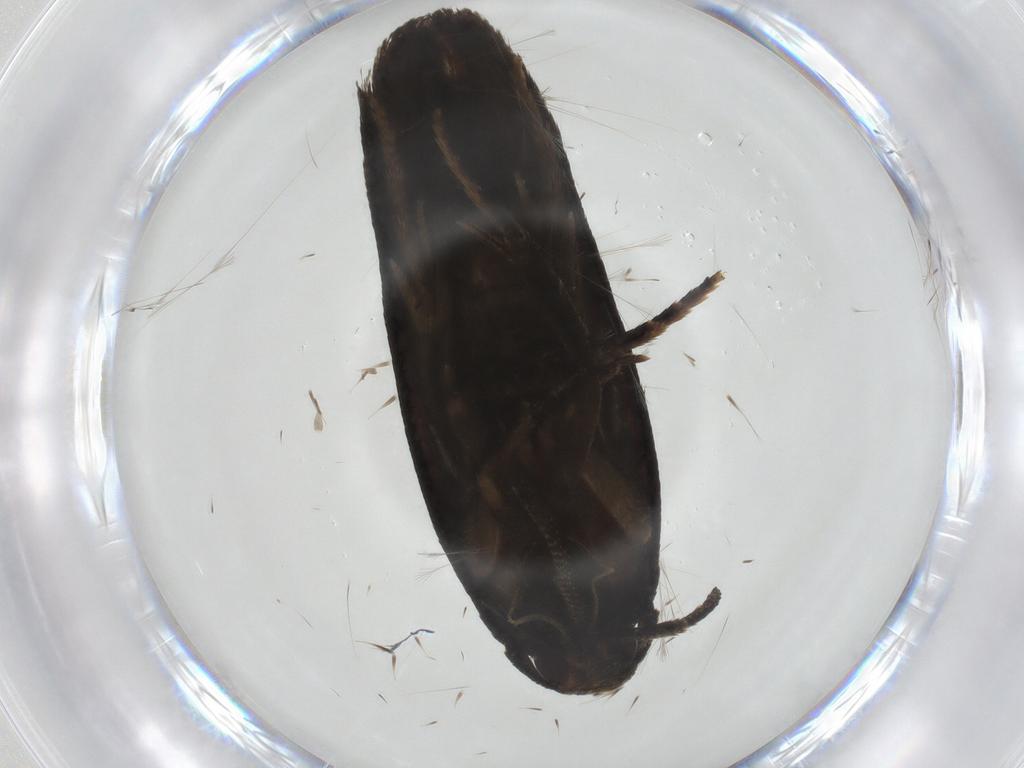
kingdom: Animalia
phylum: Arthropoda
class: Insecta
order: Lepidoptera
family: Oecophoridae
